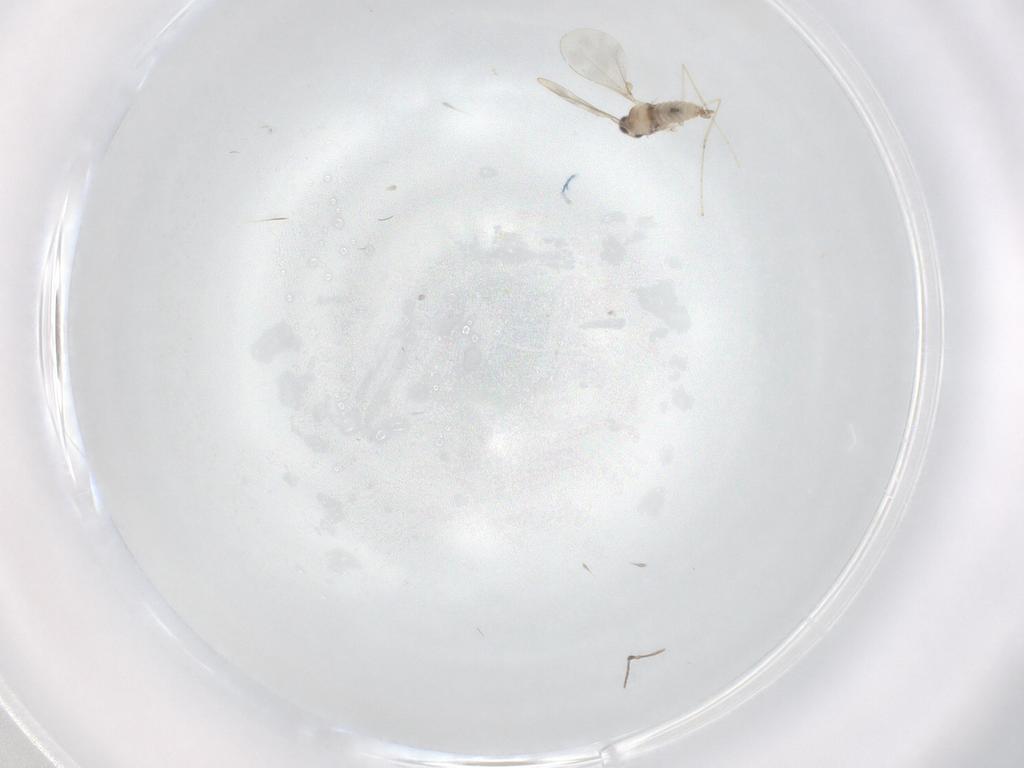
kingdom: Animalia
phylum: Arthropoda
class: Insecta
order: Diptera
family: Cecidomyiidae
